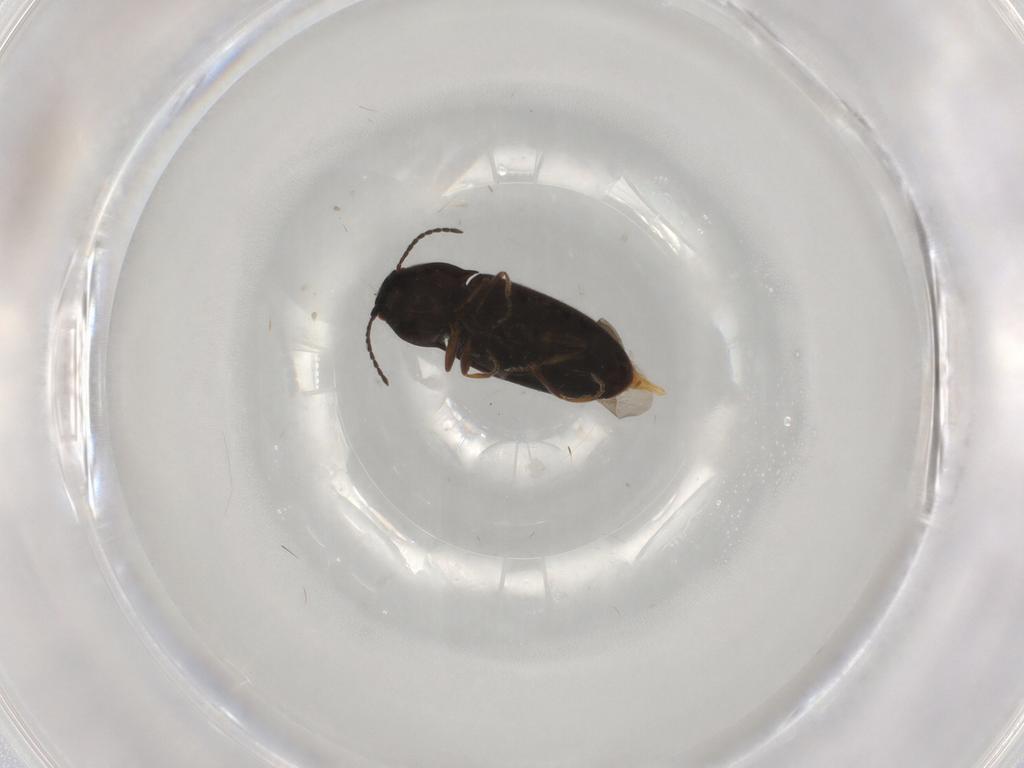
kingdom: Animalia
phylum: Arthropoda
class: Insecta
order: Coleoptera
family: Elateridae
